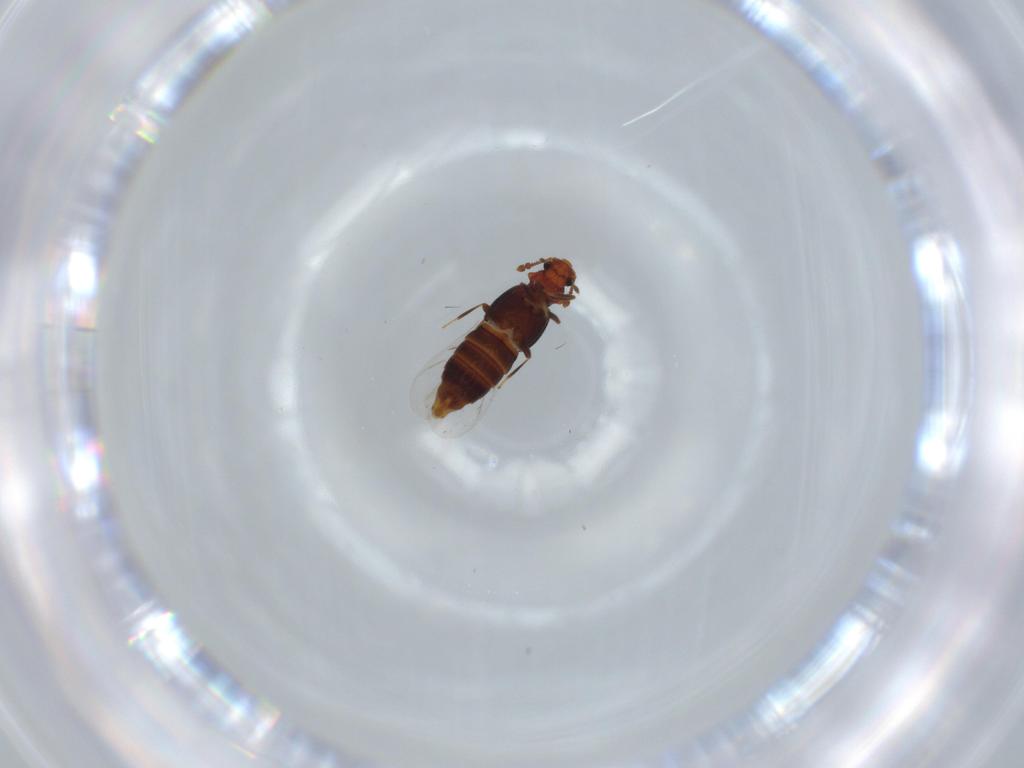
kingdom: Animalia
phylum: Arthropoda
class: Insecta
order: Coleoptera
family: Staphylinidae
